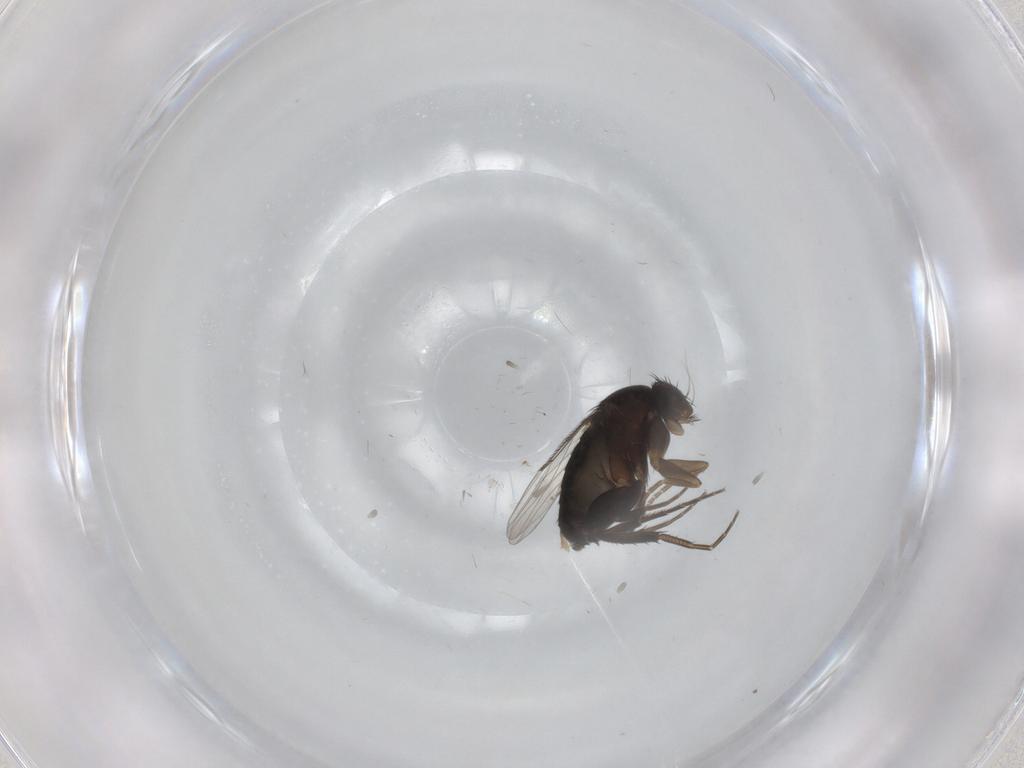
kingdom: Animalia
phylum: Arthropoda
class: Insecta
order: Diptera
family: Phoridae
